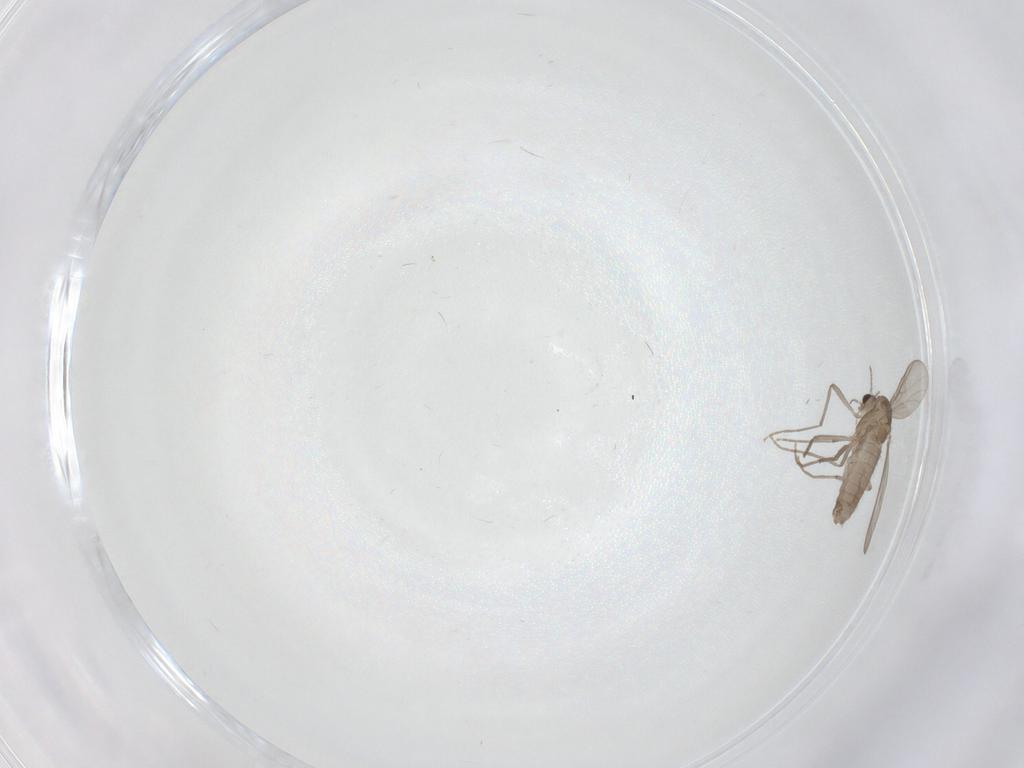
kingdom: Animalia
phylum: Arthropoda
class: Insecta
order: Diptera
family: Chironomidae
